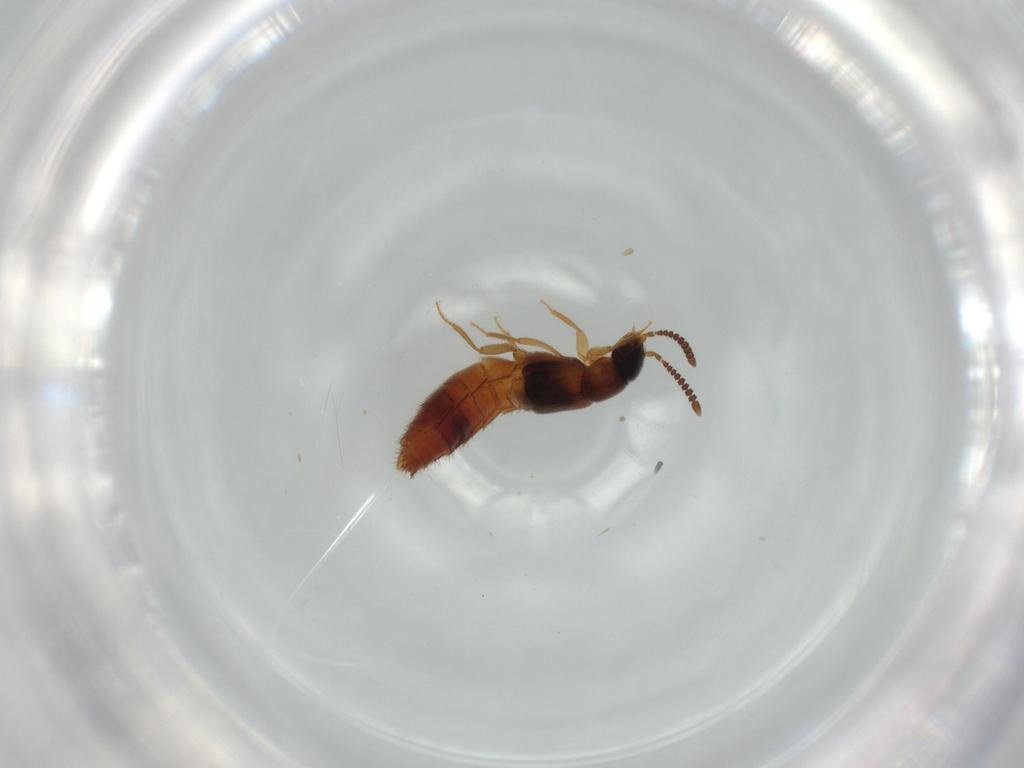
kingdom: Animalia
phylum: Arthropoda
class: Insecta
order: Coleoptera
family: Staphylinidae
